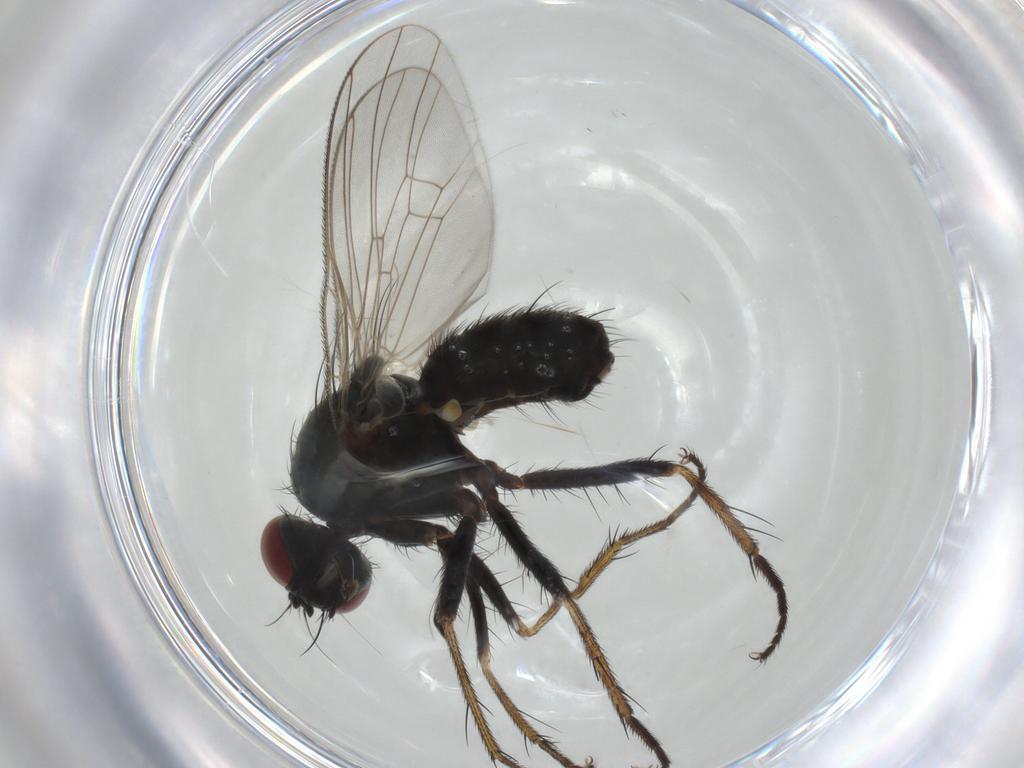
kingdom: Animalia
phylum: Arthropoda
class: Insecta
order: Diptera
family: Muscidae
